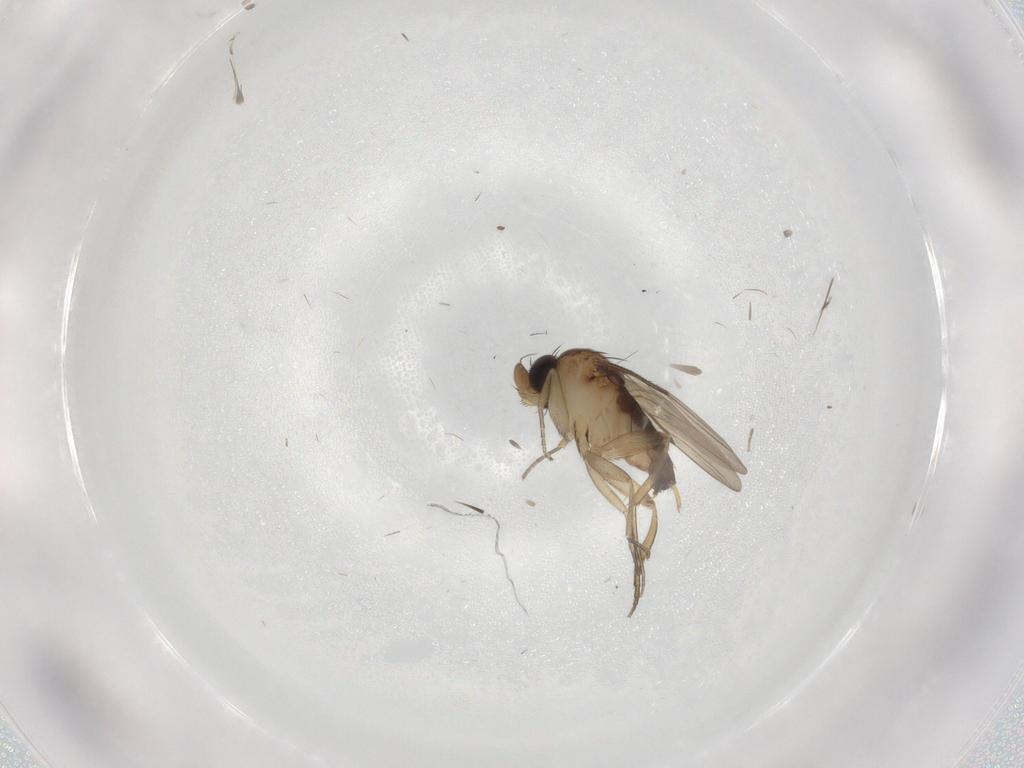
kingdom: Animalia
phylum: Arthropoda
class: Insecta
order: Diptera
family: Phoridae
